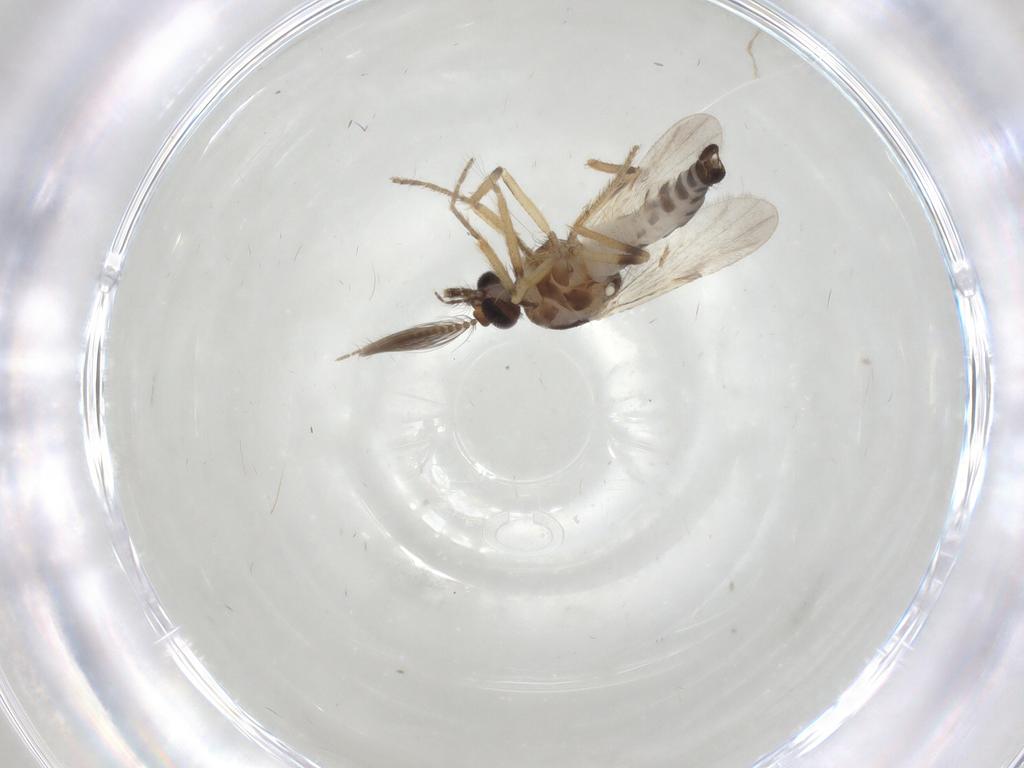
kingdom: Animalia
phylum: Arthropoda
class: Insecta
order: Diptera
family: Ceratopogonidae
